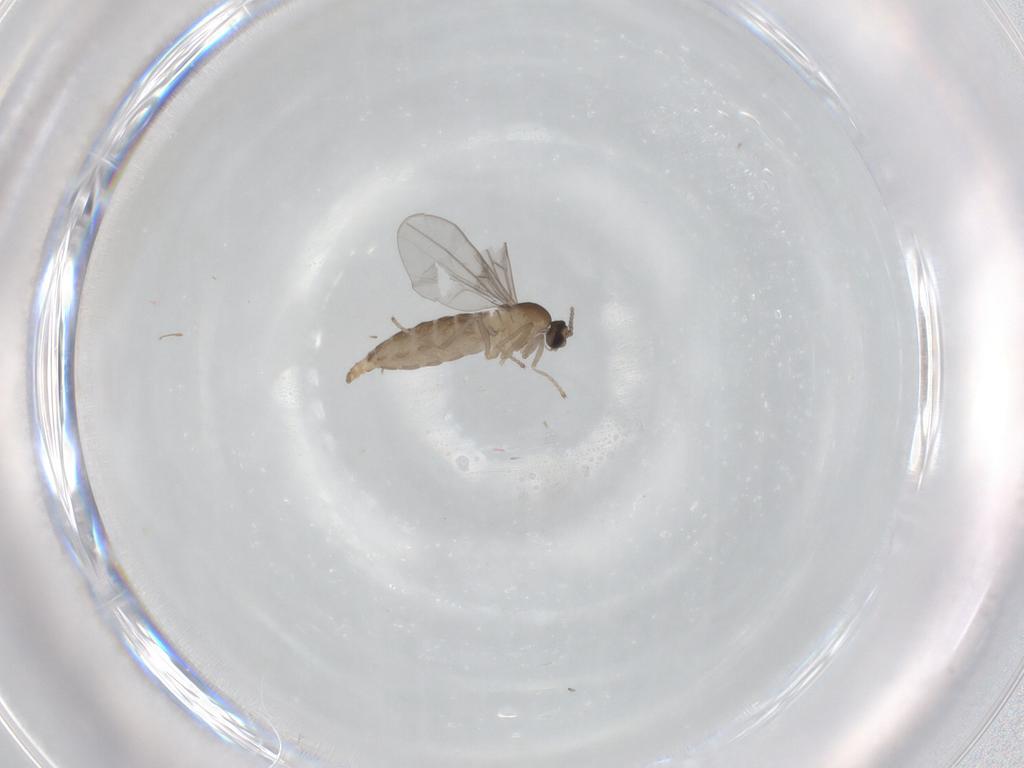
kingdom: Animalia
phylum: Arthropoda
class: Insecta
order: Diptera
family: Cecidomyiidae
